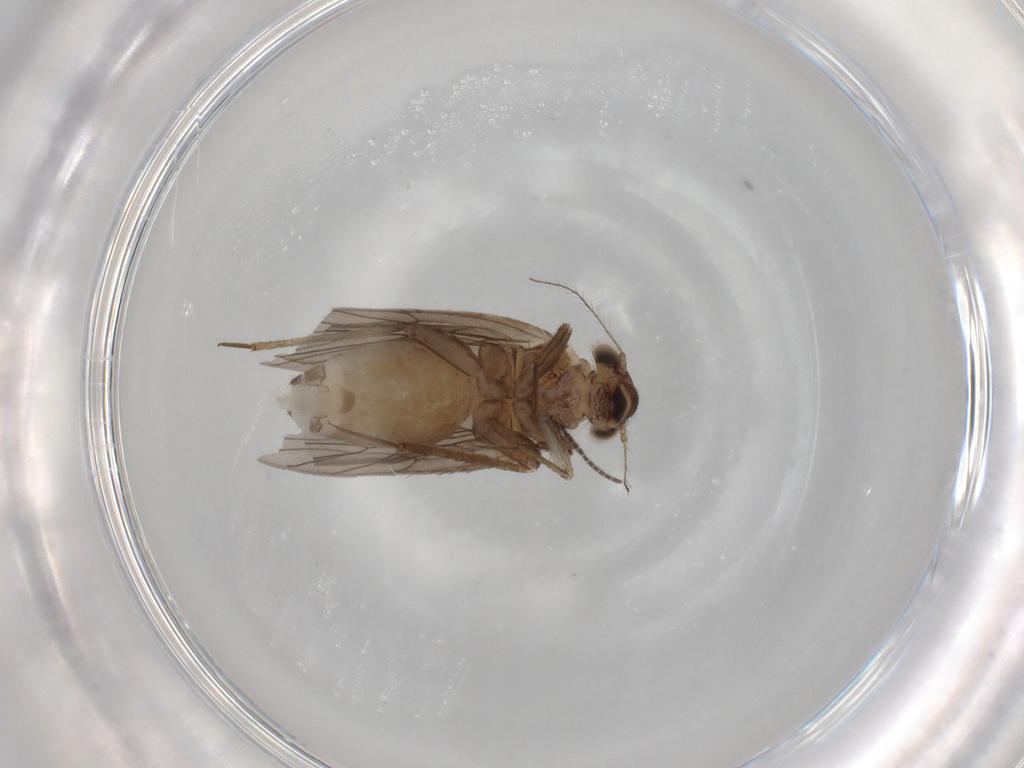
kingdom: Animalia
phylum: Arthropoda
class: Insecta
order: Psocodea
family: Lepidopsocidae
